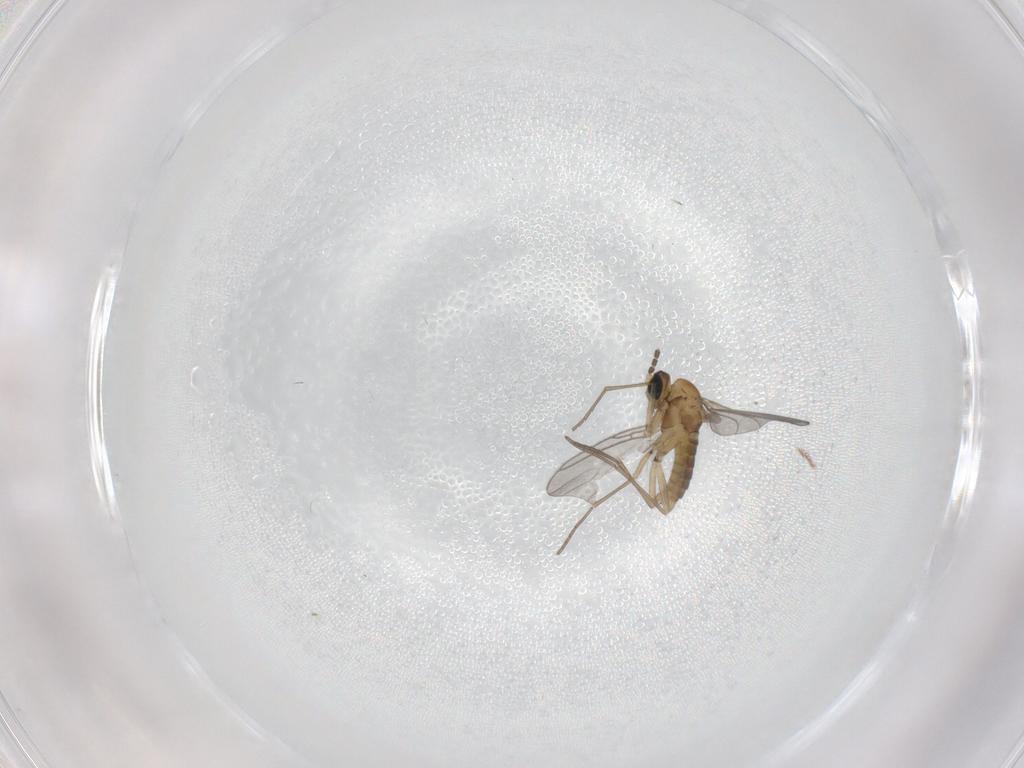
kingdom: Animalia
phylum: Arthropoda
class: Insecta
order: Diptera
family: Sciaridae
